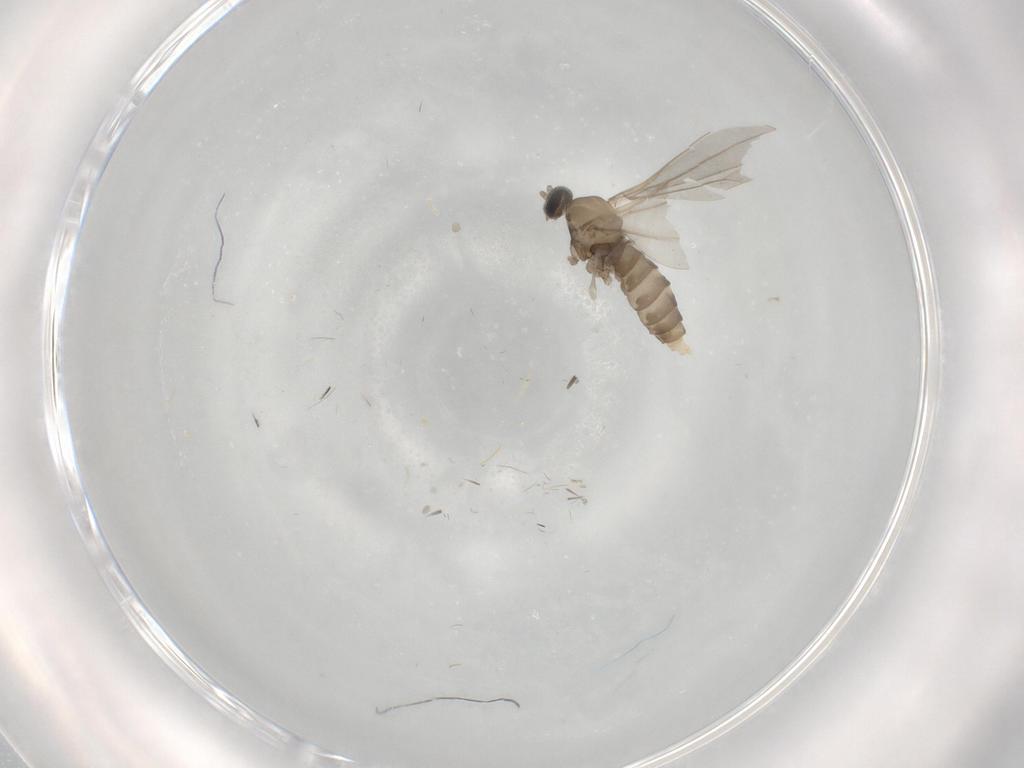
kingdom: Animalia
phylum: Arthropoda
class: Insecta
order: Diptera
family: Cecidomyiidae
